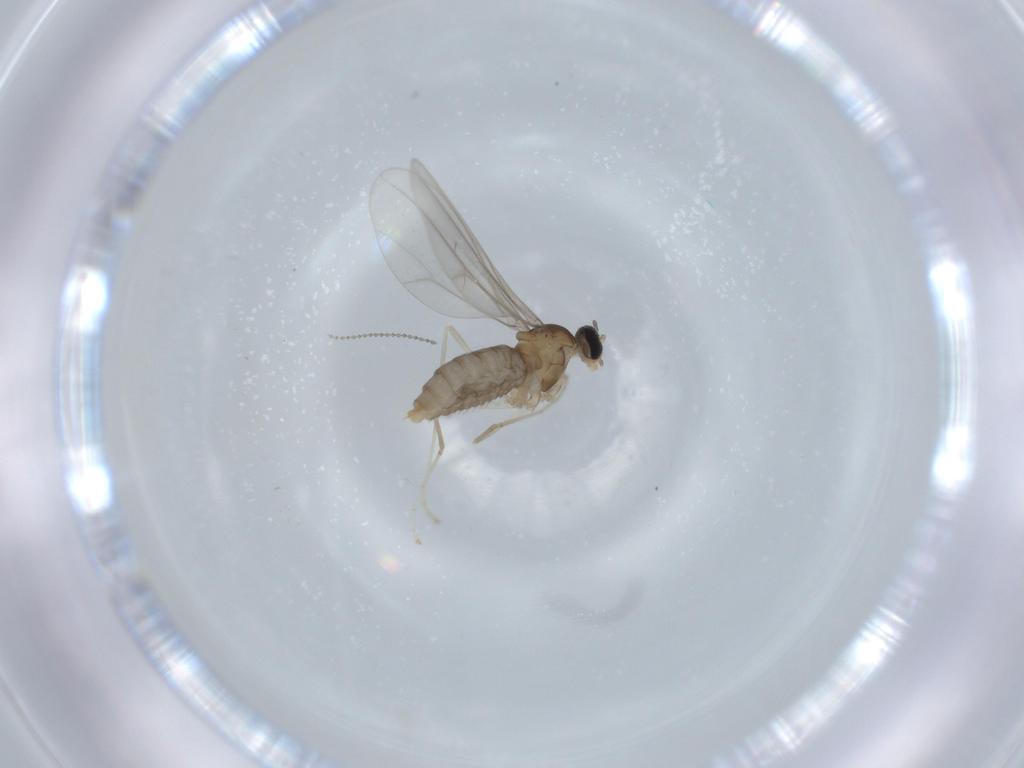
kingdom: Animalia
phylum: Arthropoda
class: Insecta
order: Diptera
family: Cecidomyiidae
